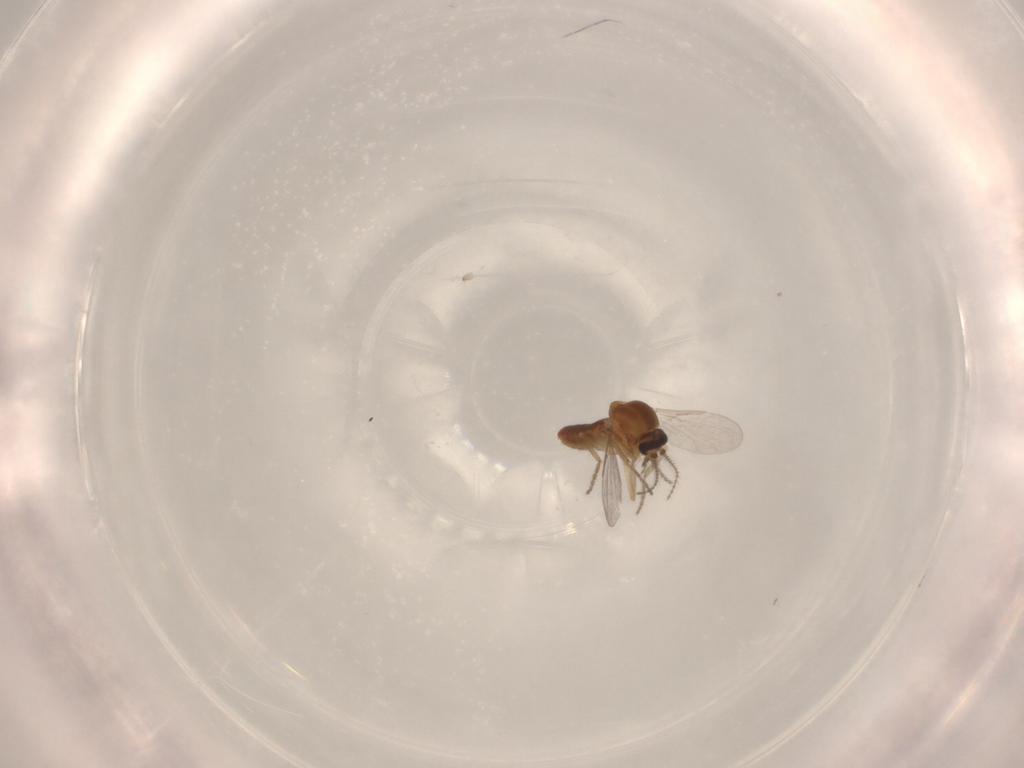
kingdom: Animalia
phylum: Arthropoda
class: Insecta
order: Diptera
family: Ceratopogonidae
